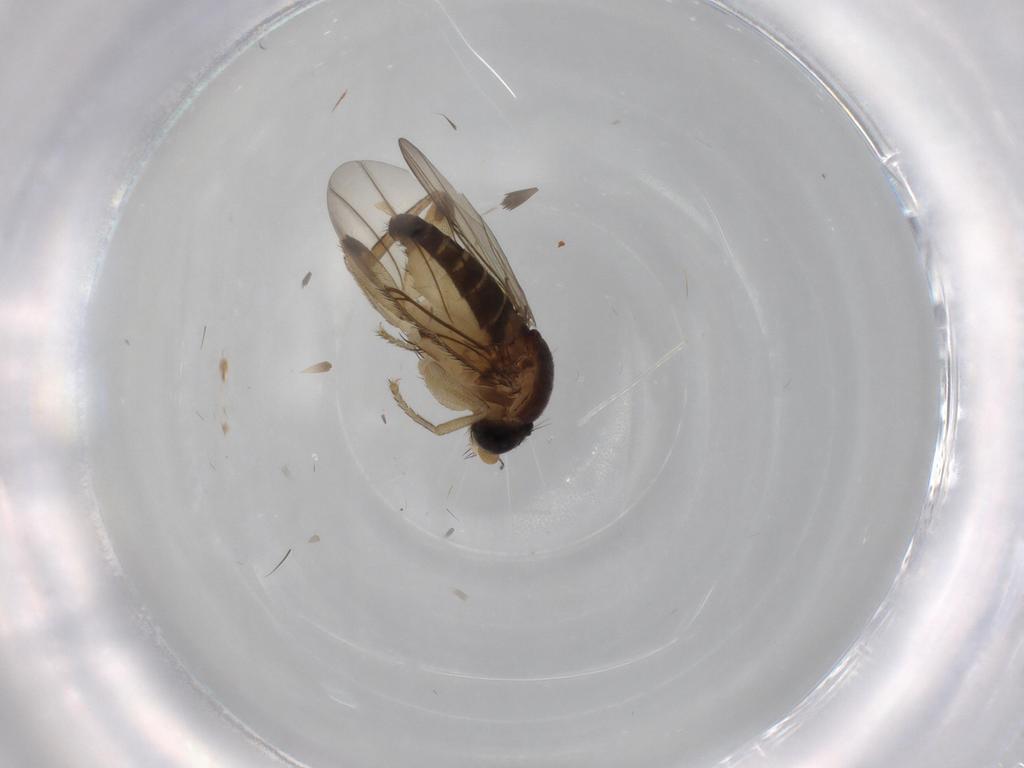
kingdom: Animalia
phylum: Arthropoda
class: Insecta
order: Diptera
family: Phoridae
